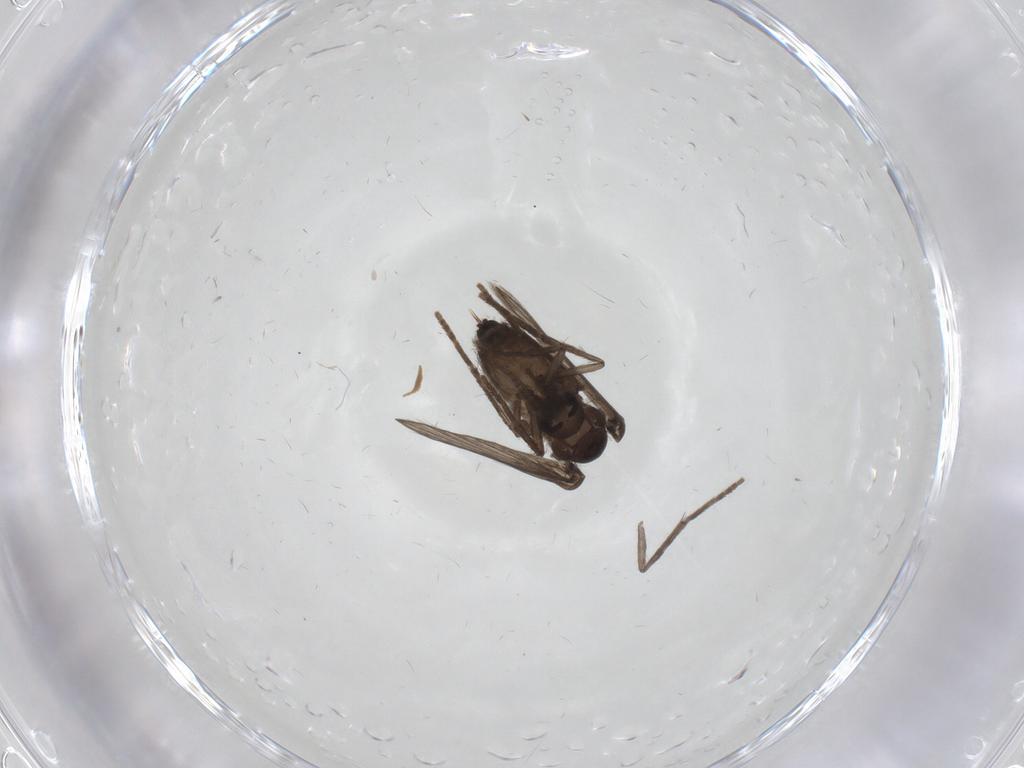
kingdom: Animalia
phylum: Arthropoda
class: Insecta
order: Diptera
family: Psychodidae
